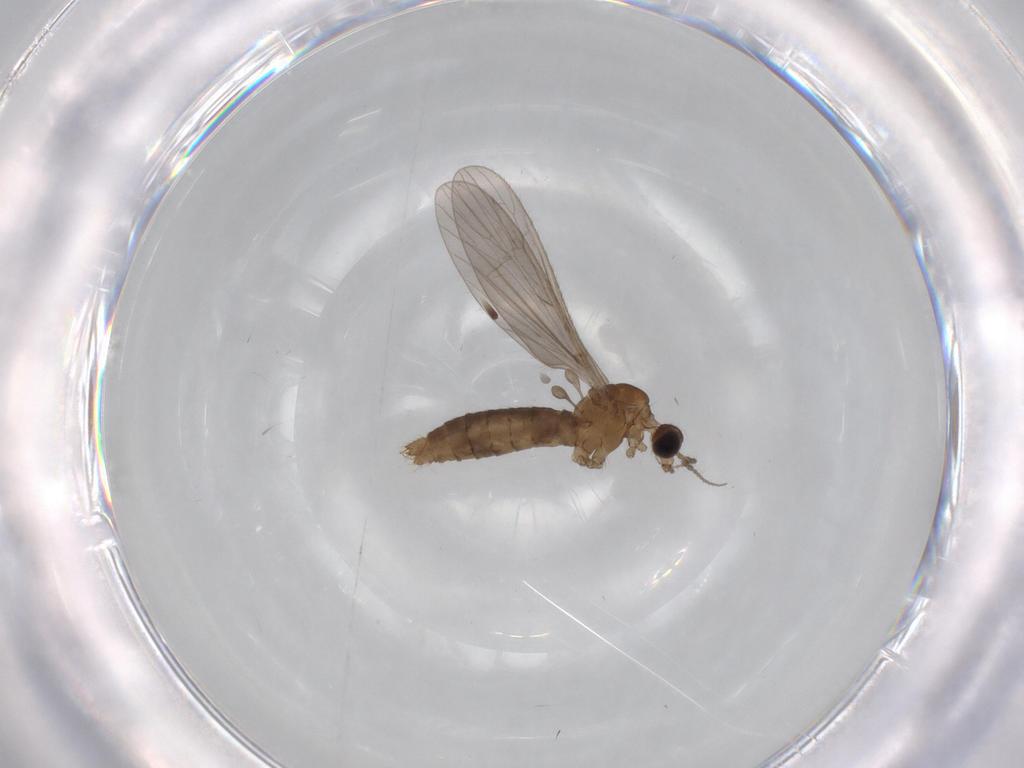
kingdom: Animalia
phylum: Arthropoda
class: Insecta
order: Diptera
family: Limoniidae
